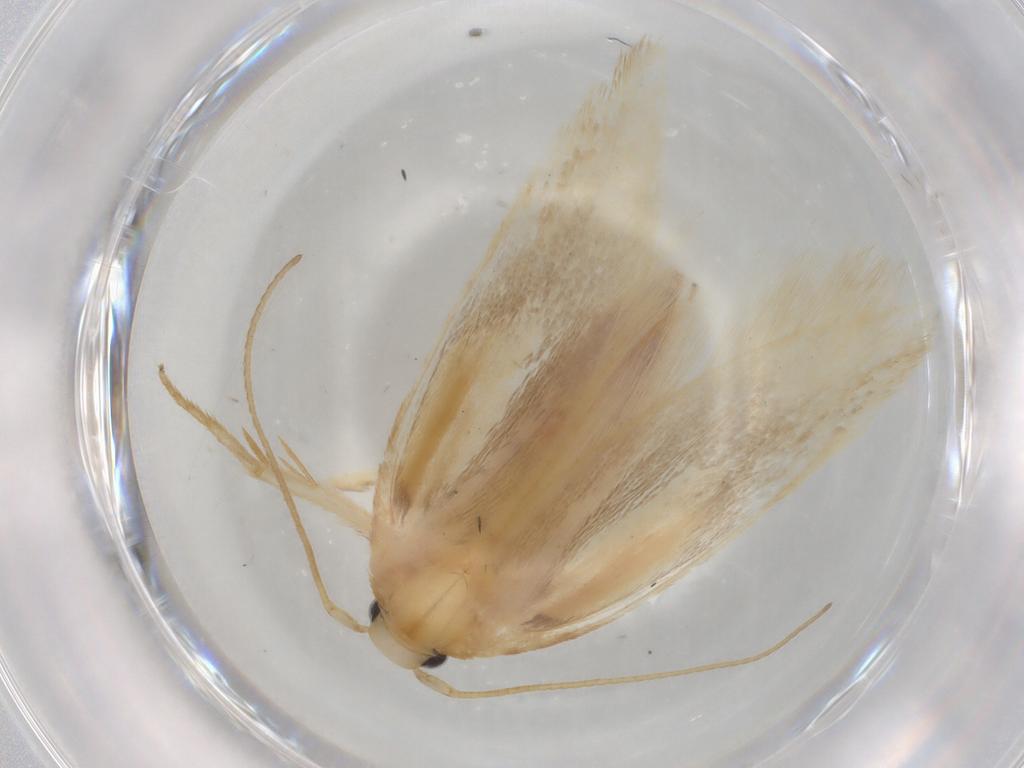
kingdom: Animalia
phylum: Arthropoda
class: Insecta
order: Lepidoptera
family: Geometridae
